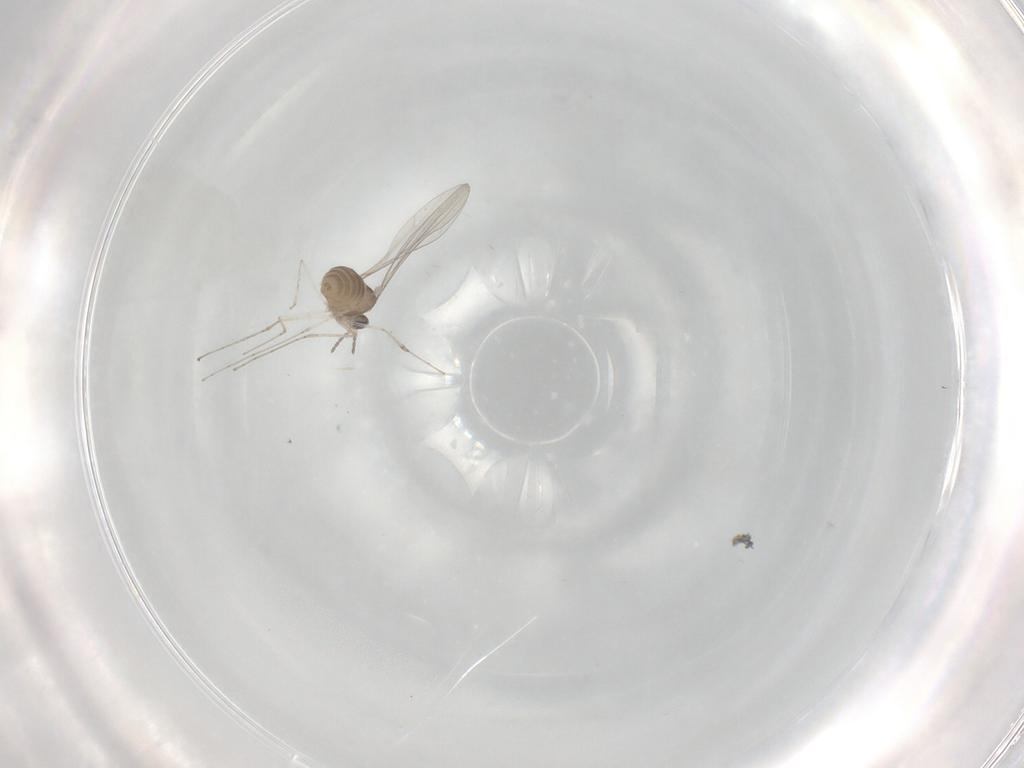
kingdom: Animalia
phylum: Arthropoda
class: Insecta
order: Diptera
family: Cecidomyiidae
